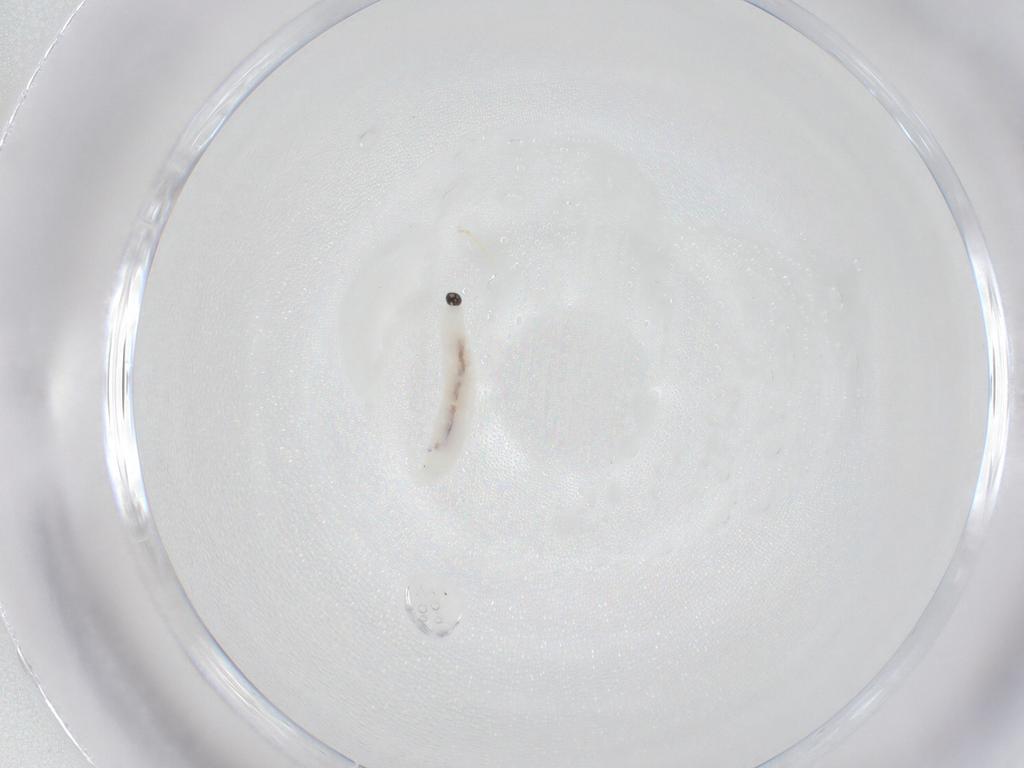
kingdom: Animalia
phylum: Arthropoda
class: Insecta
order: Diptera
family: Sciaridae
